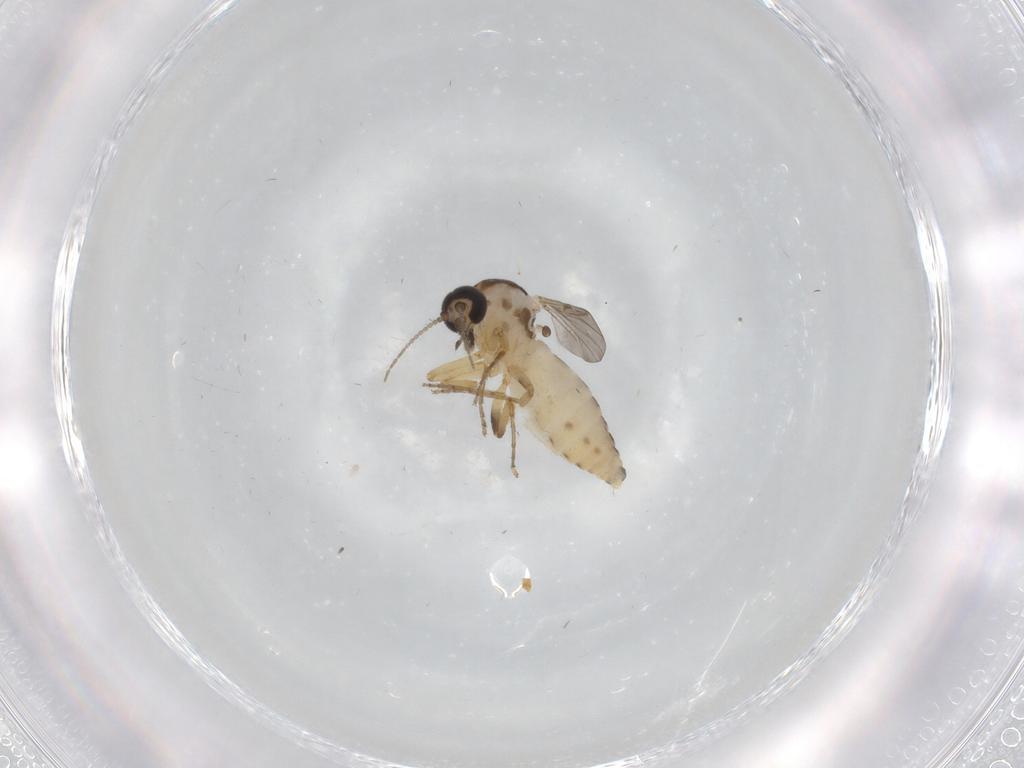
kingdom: Animalia
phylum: Arthropoda
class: Insecta
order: Diptera
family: Ceratopogonidae
